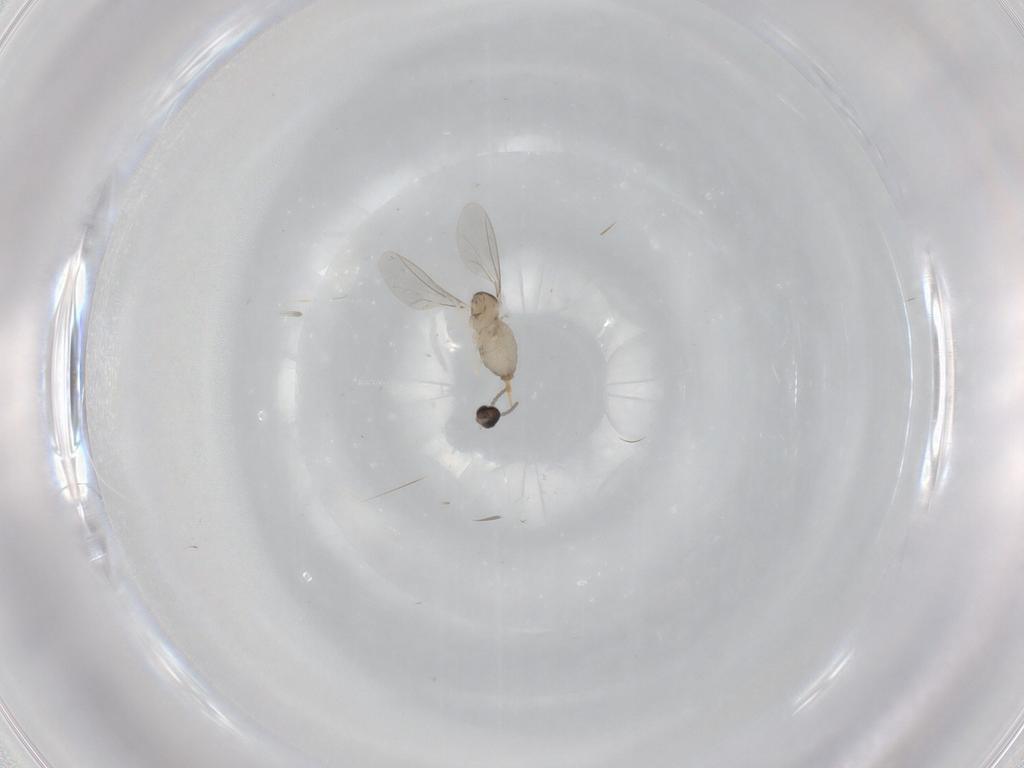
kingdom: Animalia
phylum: Arthropoda
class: Insecta
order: Diptera
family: Cecidomyiidae
